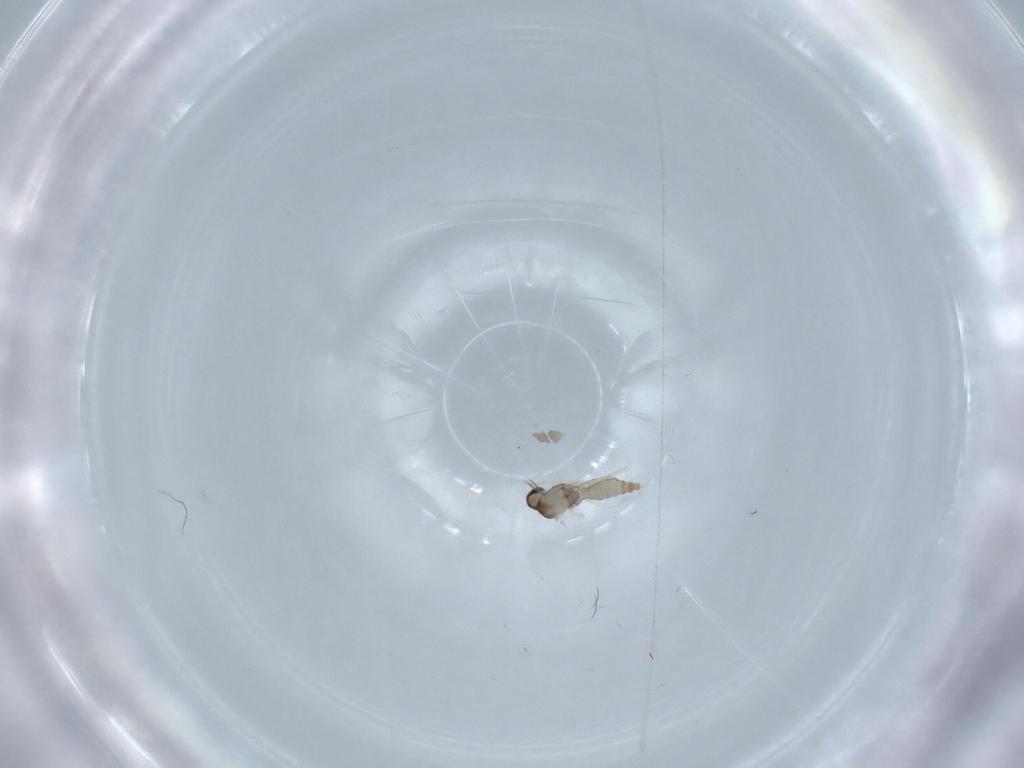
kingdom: Animalia
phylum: Arthropoda
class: Insecta
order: Diptera
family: Cecidomyiidae
